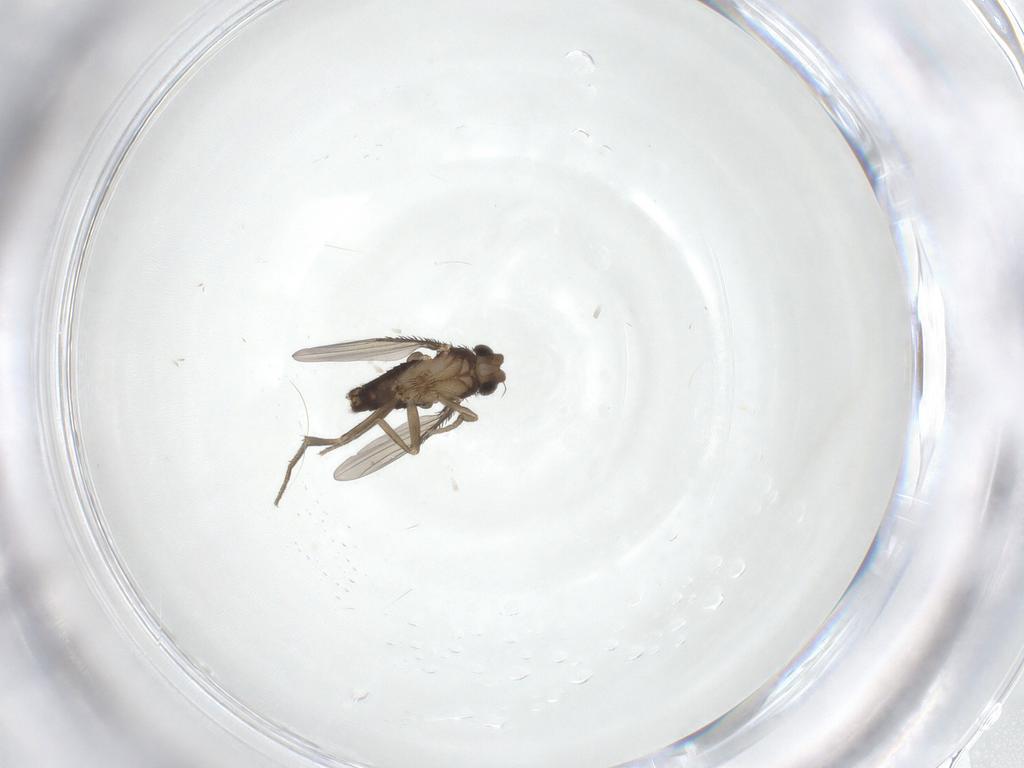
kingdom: Animalia
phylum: Arthropoda
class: Insecta
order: Diptera
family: Phoridae
